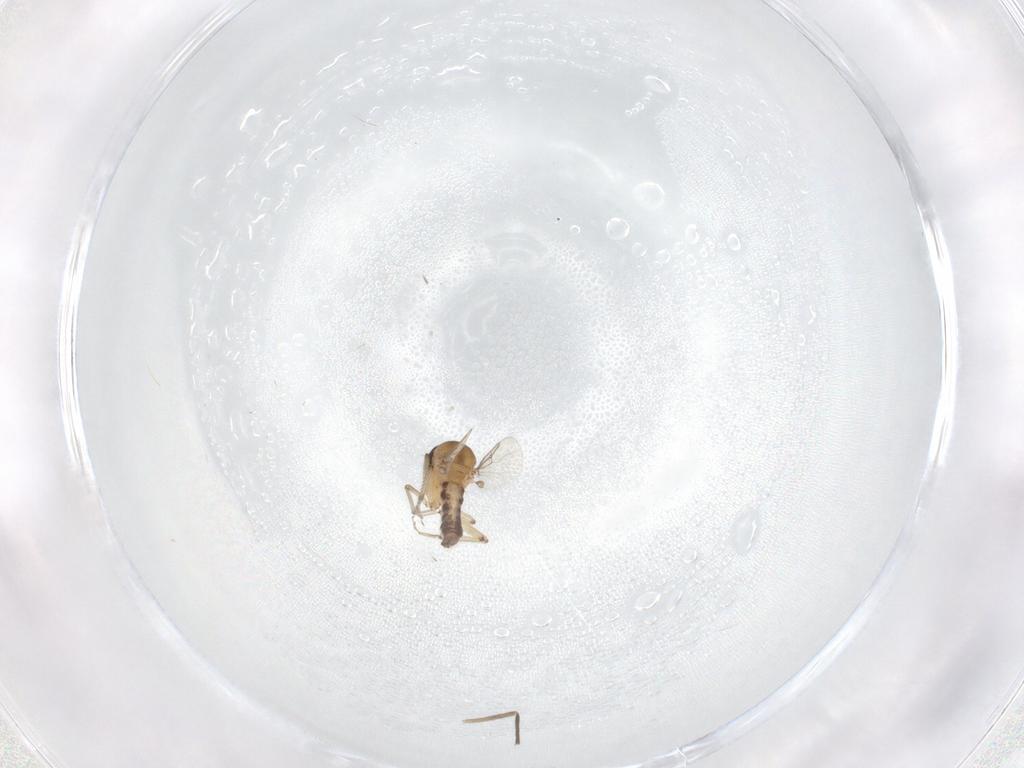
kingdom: Animalia
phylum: Arthropoda
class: Insecta
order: Diptera
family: Ceratopogonidae
